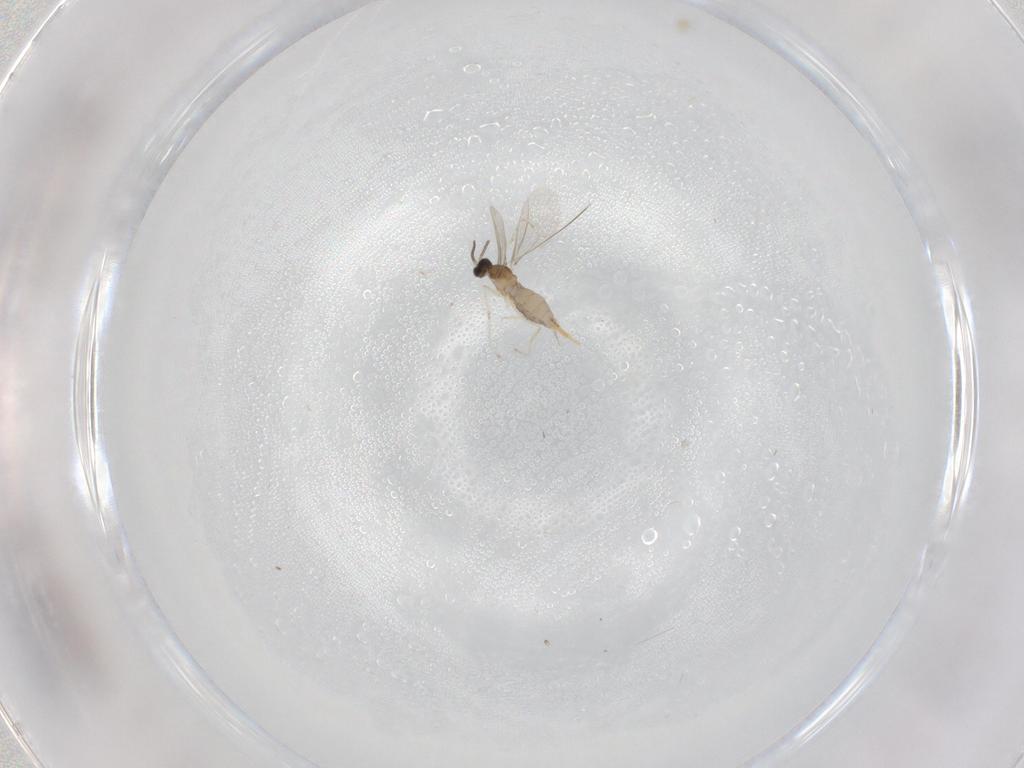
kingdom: Animalia
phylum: Arthropoda
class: Insecta
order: Diptera
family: Cecidomyiidae
